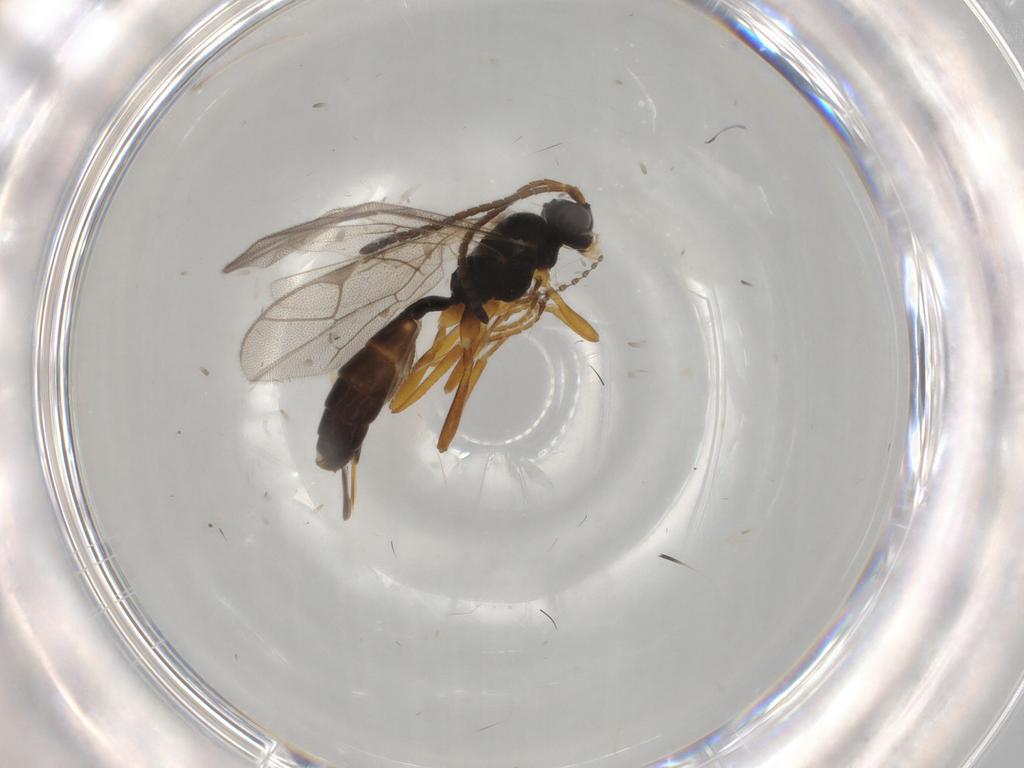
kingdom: Animalia
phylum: Arthropoda
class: Insecta
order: Hymenoptera
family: Ichneumonidae
